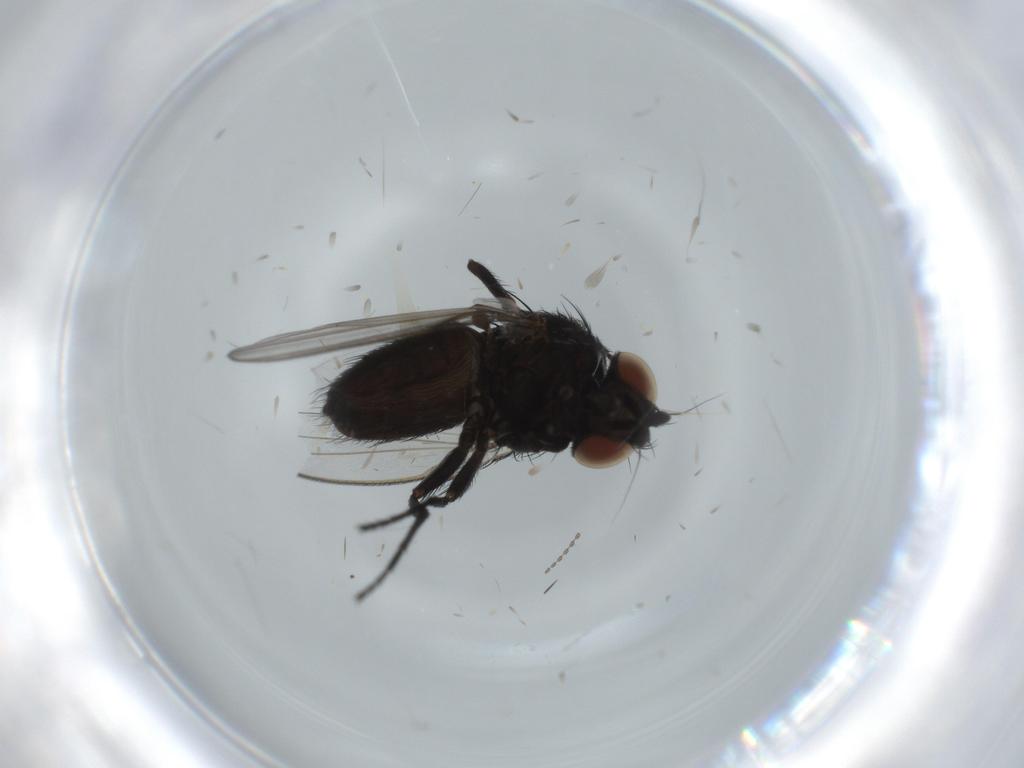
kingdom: Animalia
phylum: Arthropoda
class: Insecta
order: Diptera
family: Milichiidae
